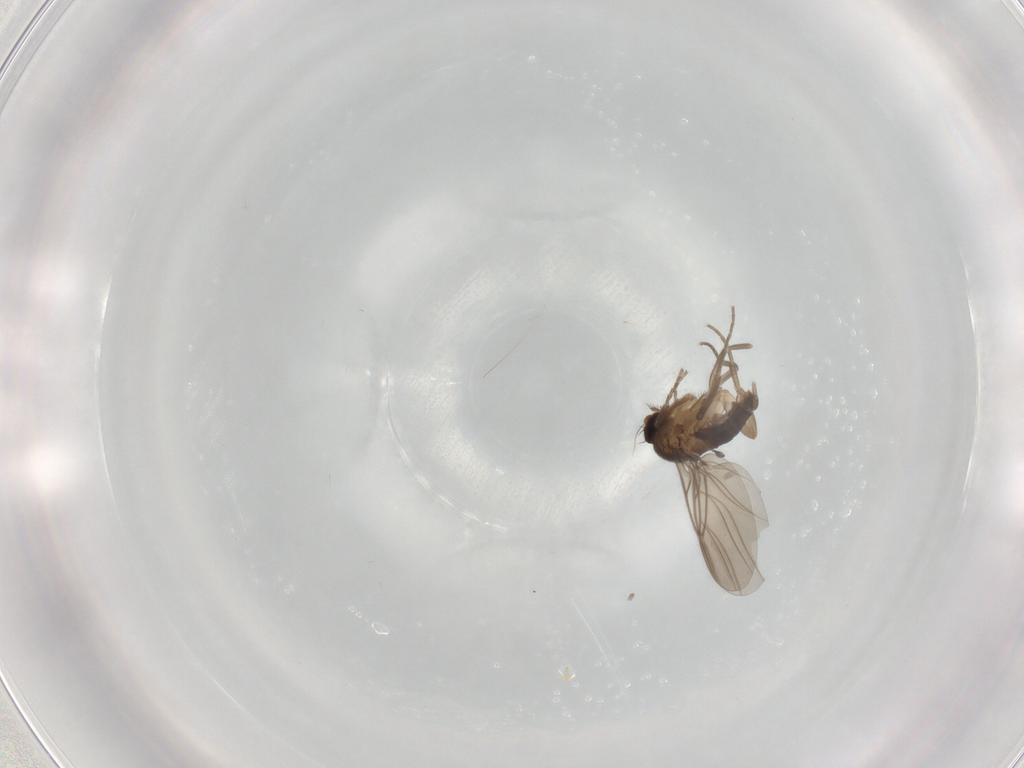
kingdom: Animalia
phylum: Arthropoda
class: Insecta
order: Diptera
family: Phoridae
